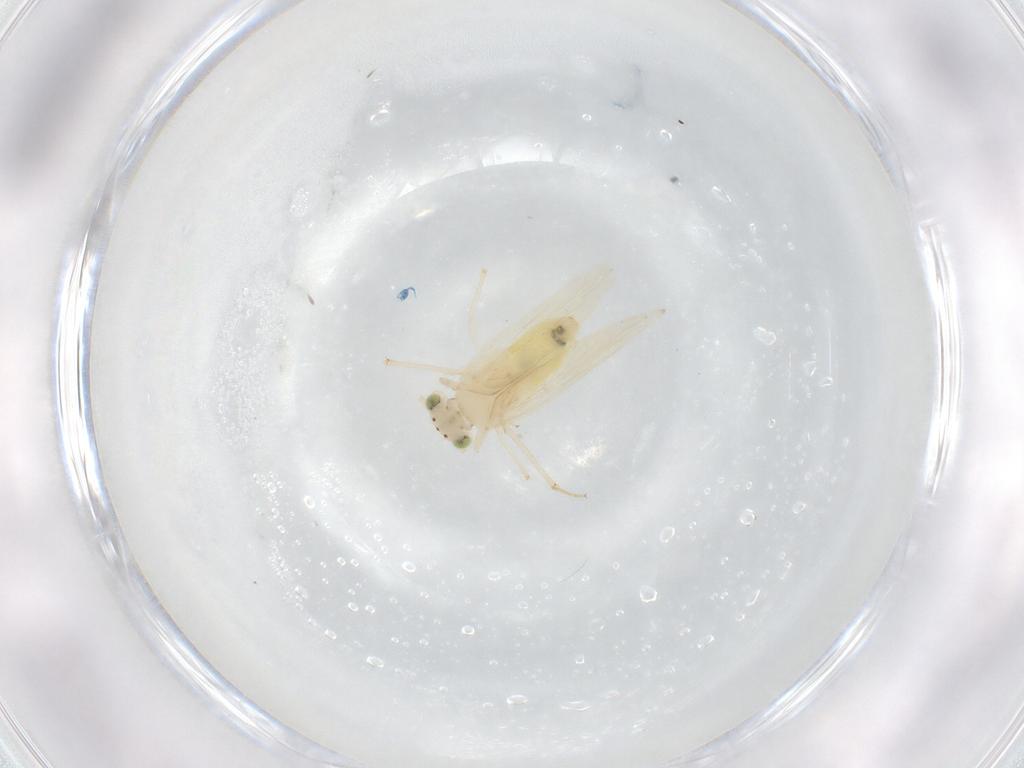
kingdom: Animalia
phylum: Arthropoda
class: Insecta
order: Psocodea
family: Lepidopsocidae
